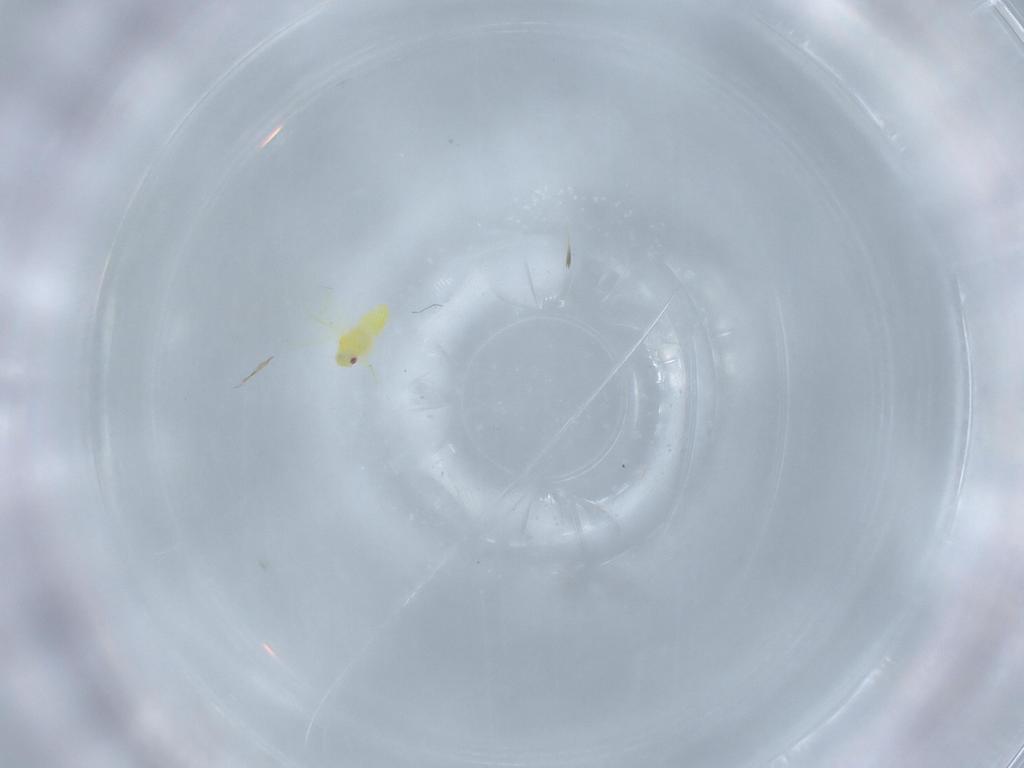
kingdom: Animalia
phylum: Arthropoda
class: Insecta
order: Hemiptera
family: Aleyrodidae
